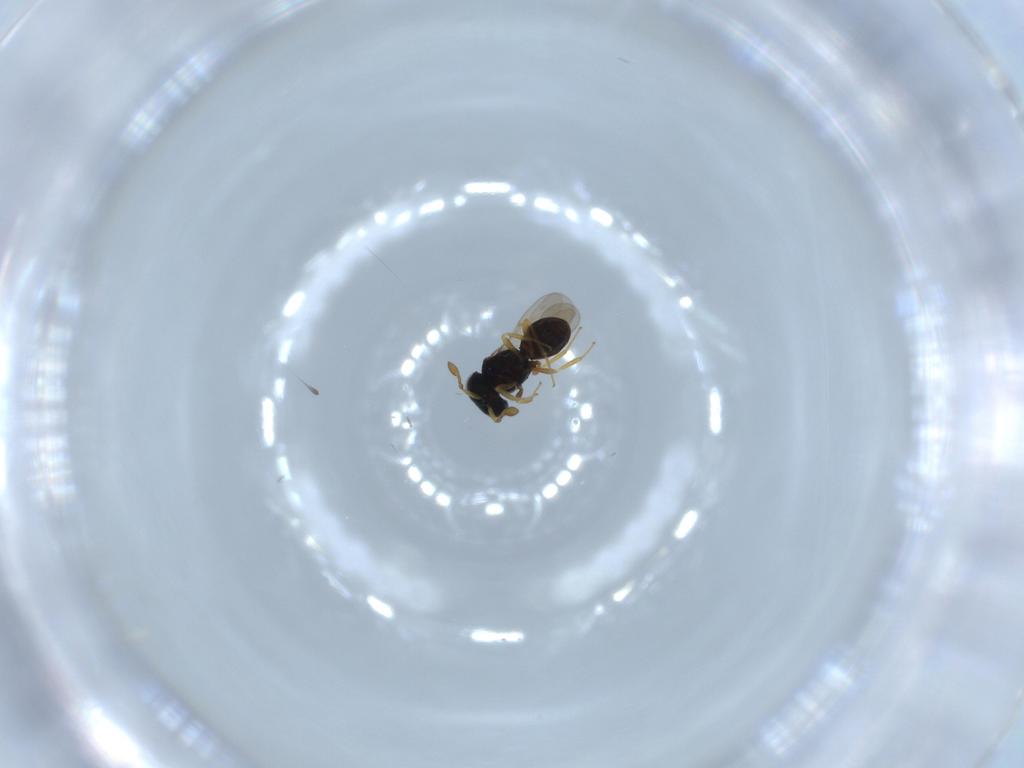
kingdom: Animalia
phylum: Arthropoda
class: Insecta
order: Hymenoptera
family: Scelionidae
